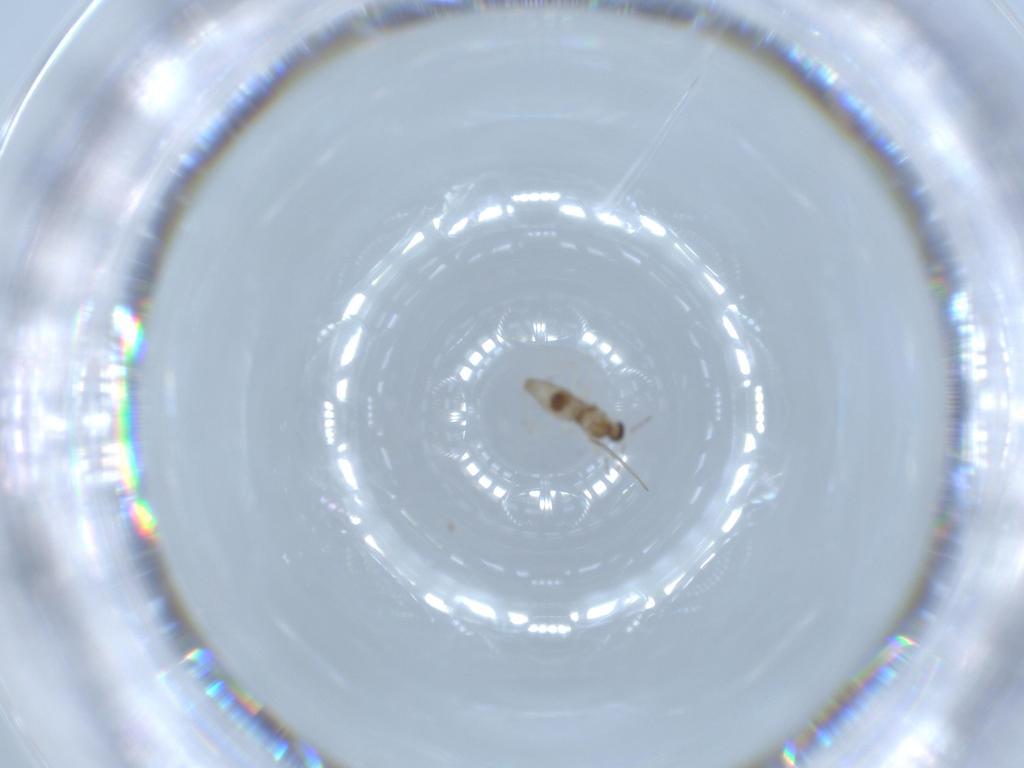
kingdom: Animalia
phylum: Arthropoda
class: Insecta
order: Diptera
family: Cecidomyiidae
